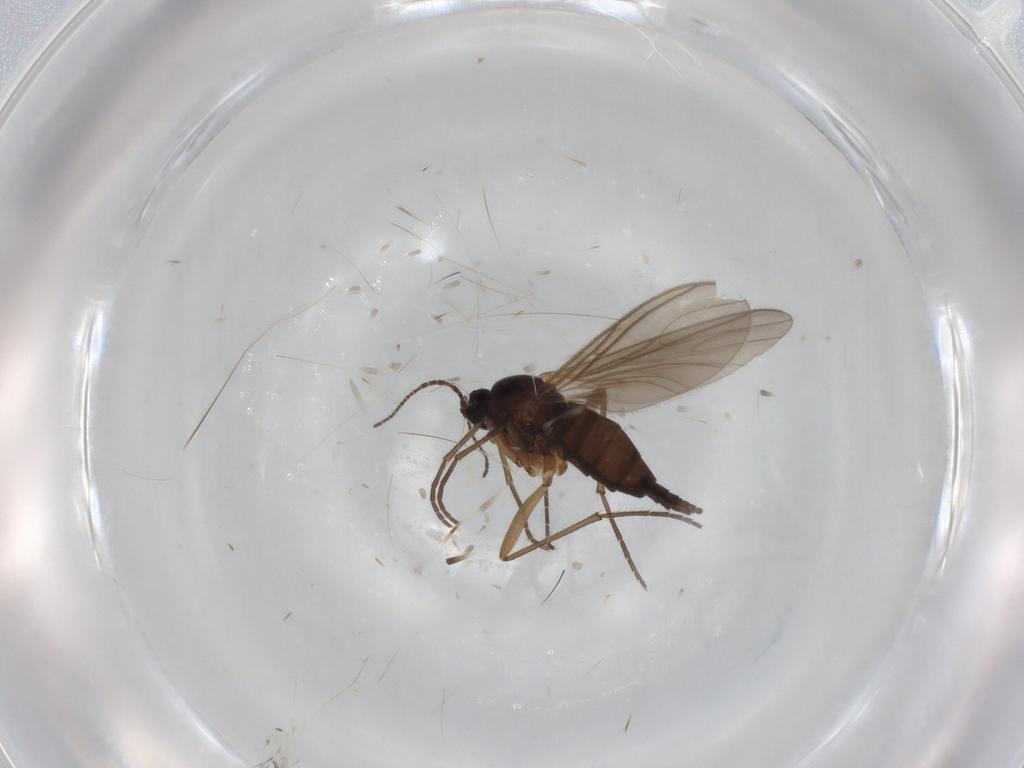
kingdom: Animalia
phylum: Arthropoda
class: Insecta
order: Diptera
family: Sciaridae
